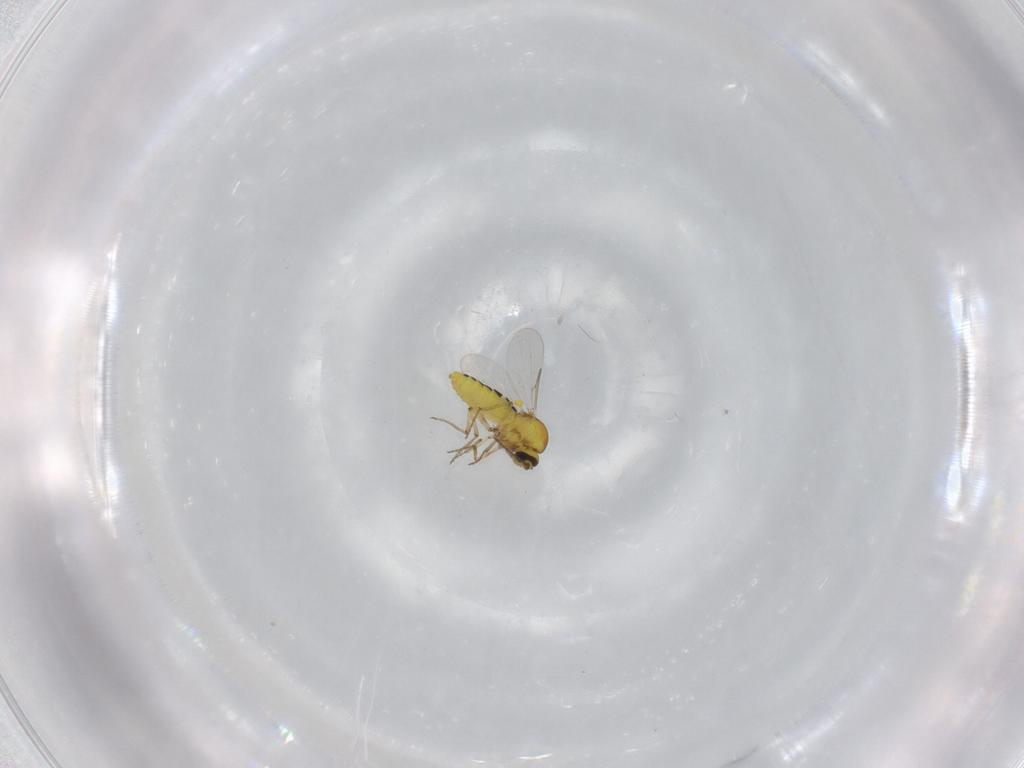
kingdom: Animalia
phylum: Arthropoda
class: Insecta
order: Diptera
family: Ceratopogonidae
